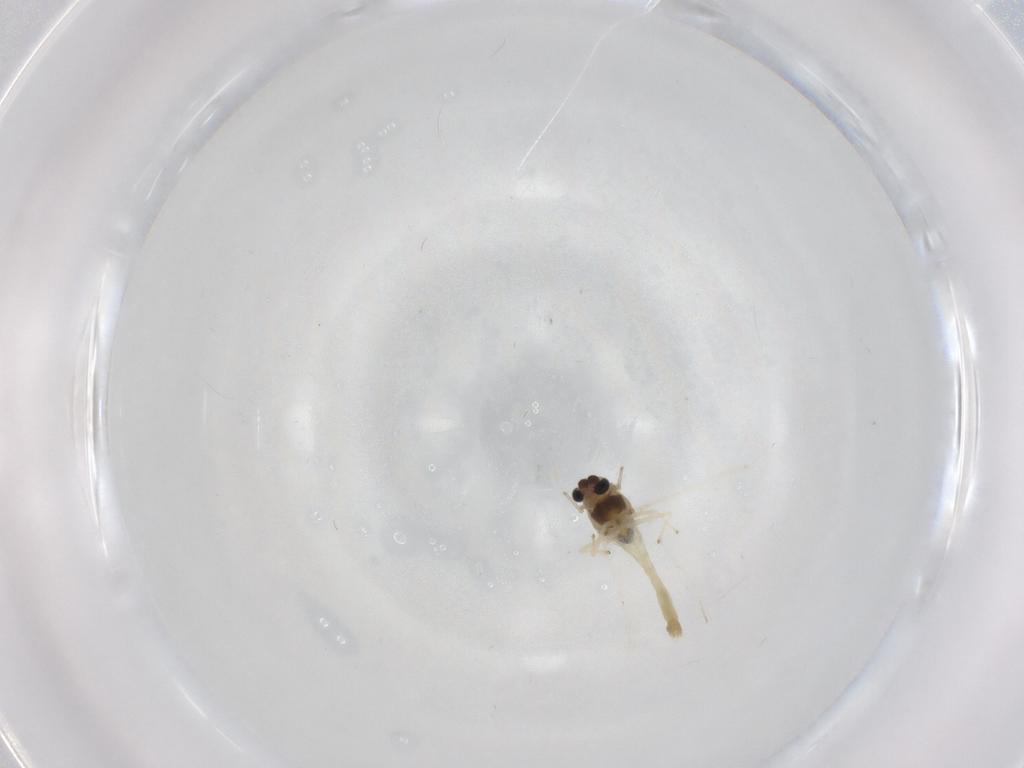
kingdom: Animalia
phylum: Arthropoda
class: Insecta
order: Diptera
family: Chironomidae
